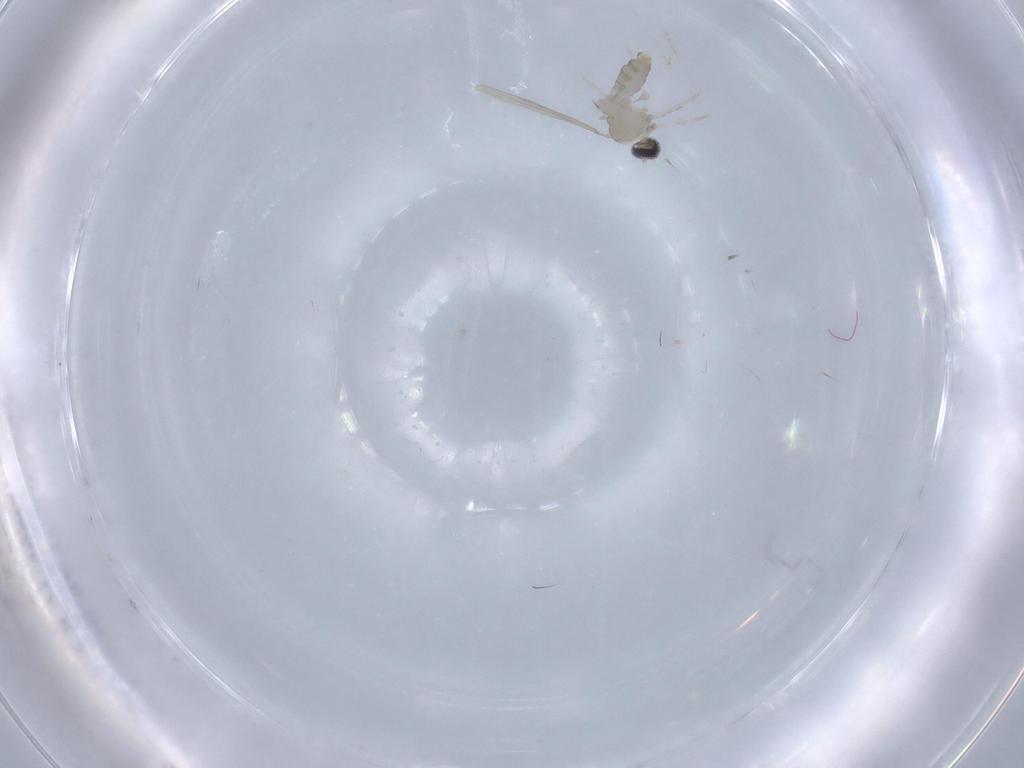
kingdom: Animalia
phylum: Arthropoda
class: Insecta
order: Diptera
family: Cecidomyiidae
